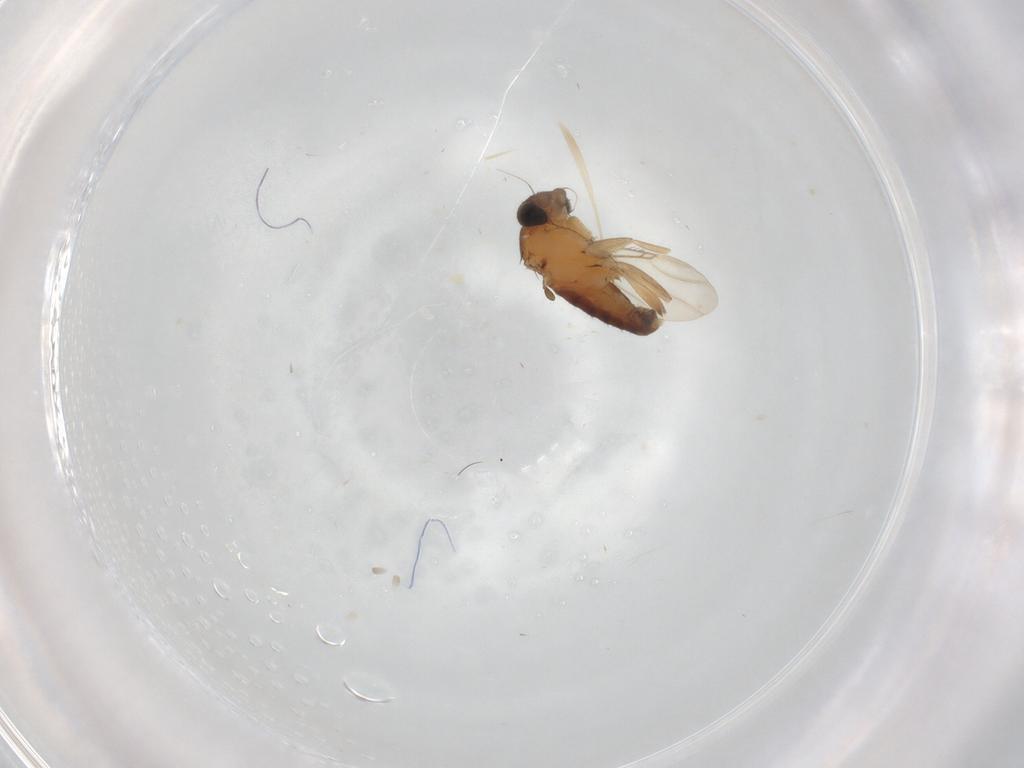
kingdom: Animalia
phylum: Arthropoda
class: Insecta
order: Diptera
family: Phoridae
